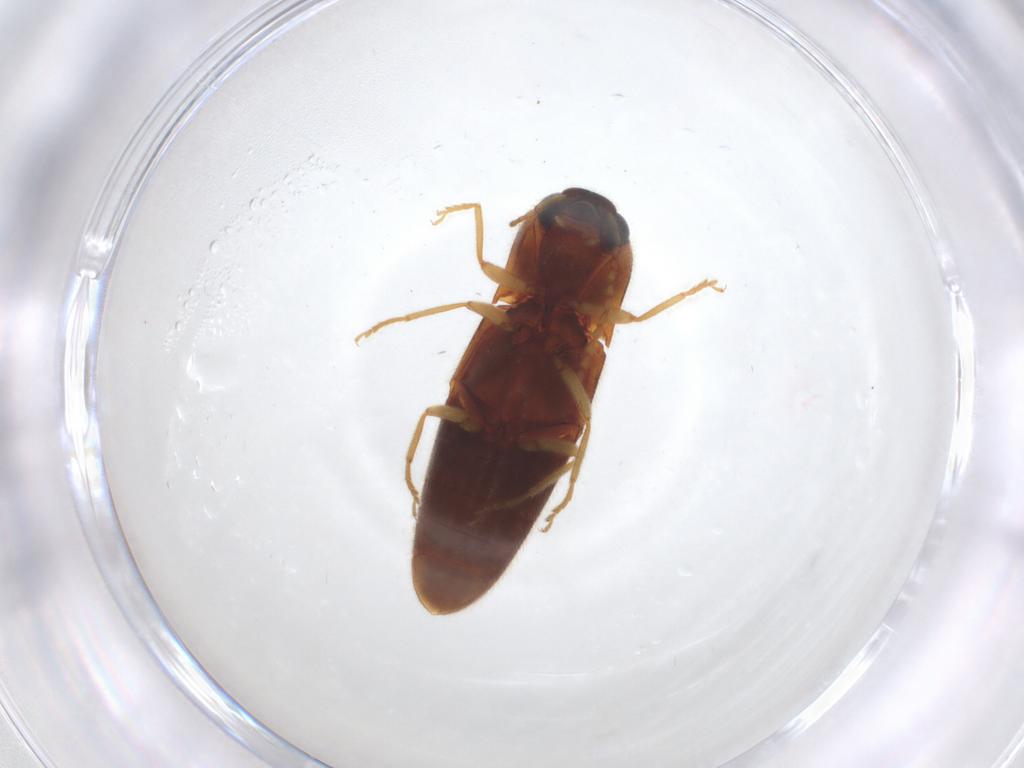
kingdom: Animalia
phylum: Arthropoda
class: Insecta
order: Coleoptera
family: Elateridae
